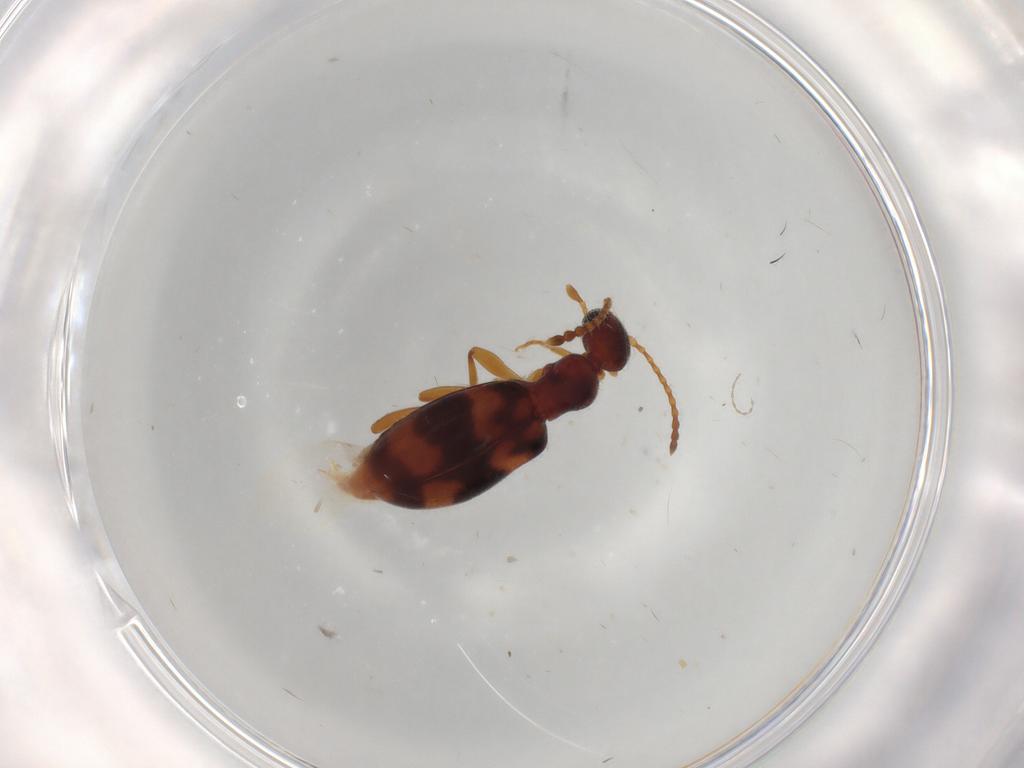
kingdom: Animalia
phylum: Arthropoda
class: Insecta
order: Coleoptera
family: Anthicidae
